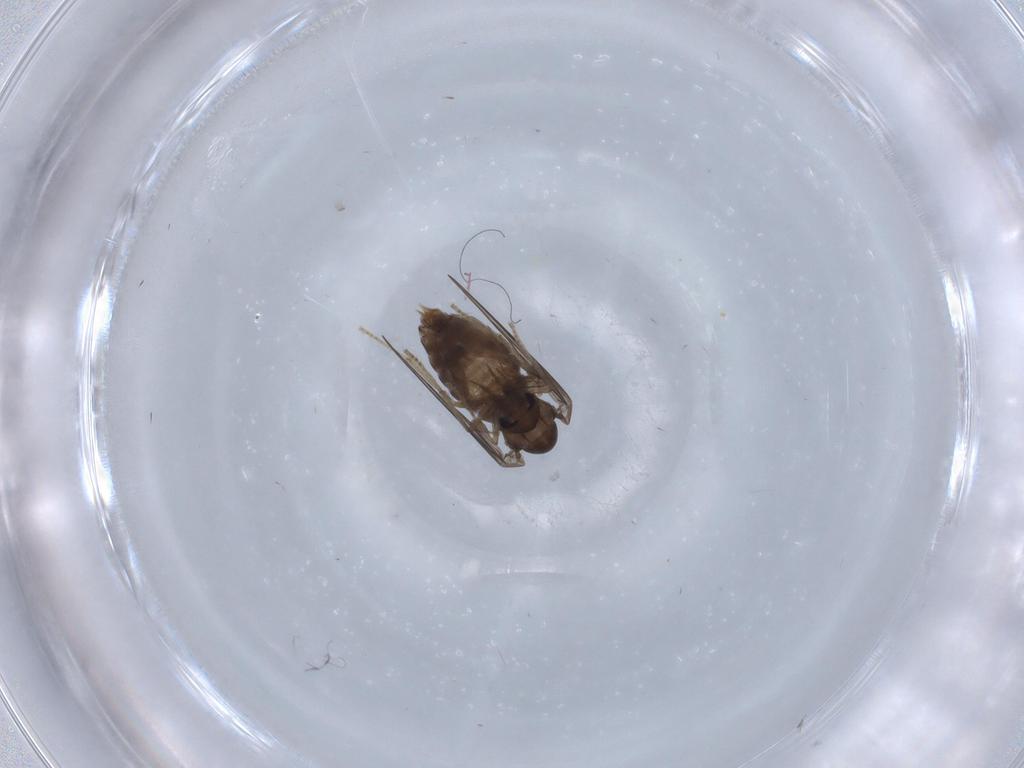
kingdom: Animalia
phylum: Arthropoda
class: Insecta
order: Diptera
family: Psychodidae
